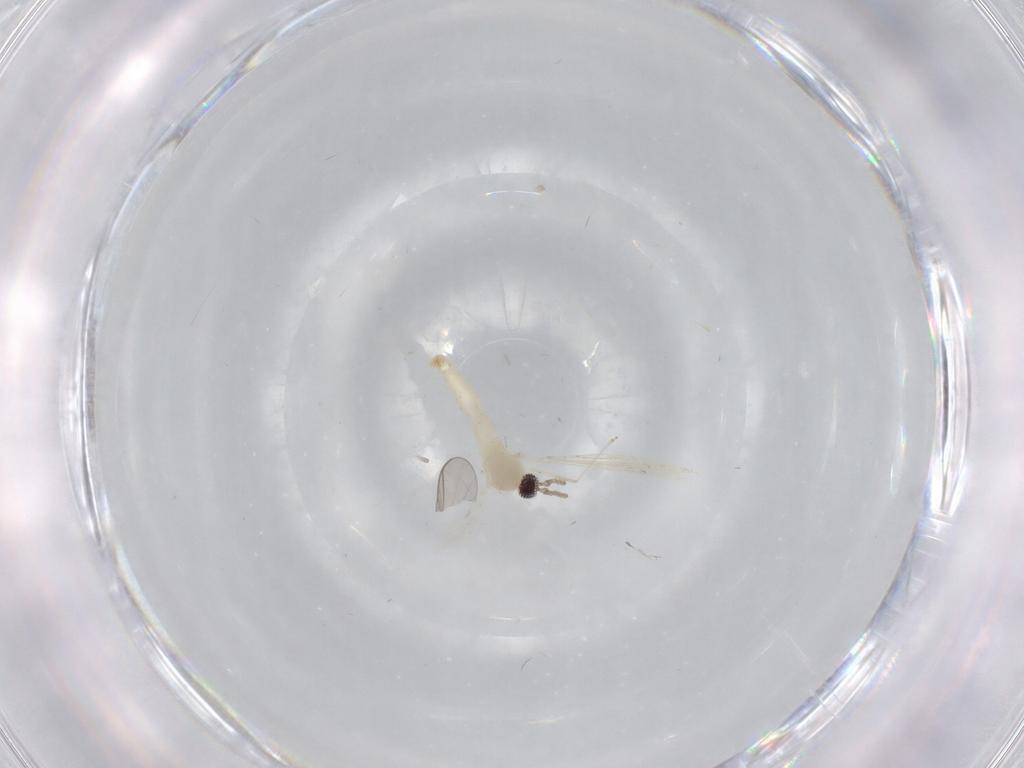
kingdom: Animalia
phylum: Arthropoda
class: Insecta
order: Diptera
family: Cecidomyiidae
